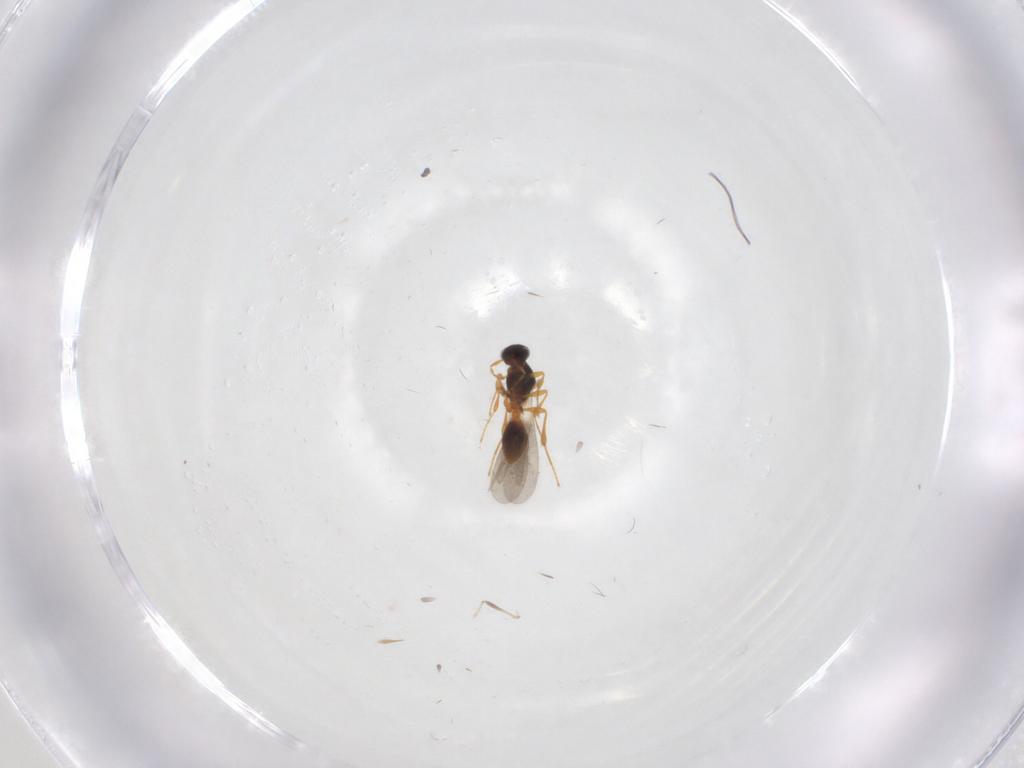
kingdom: Animalia
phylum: Arthropoda
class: Insecta
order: Hymenoptera
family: Platygastridae
